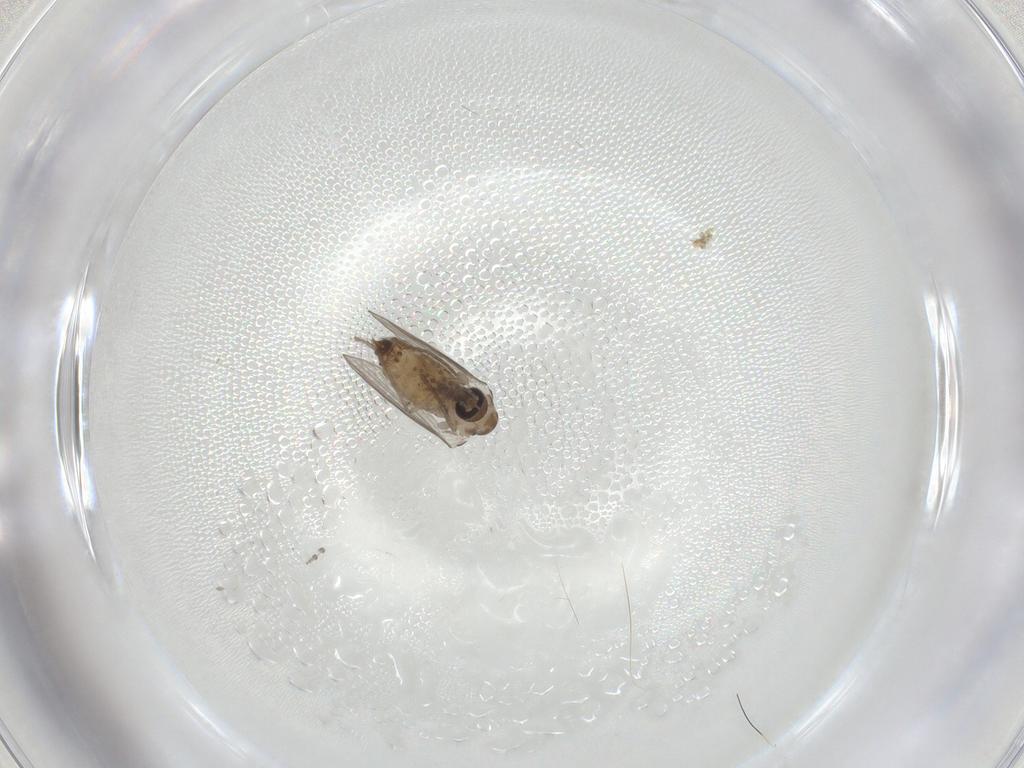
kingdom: Animalia
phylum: Arthropoda
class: Insecta
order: Diptera
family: Psychodidae
